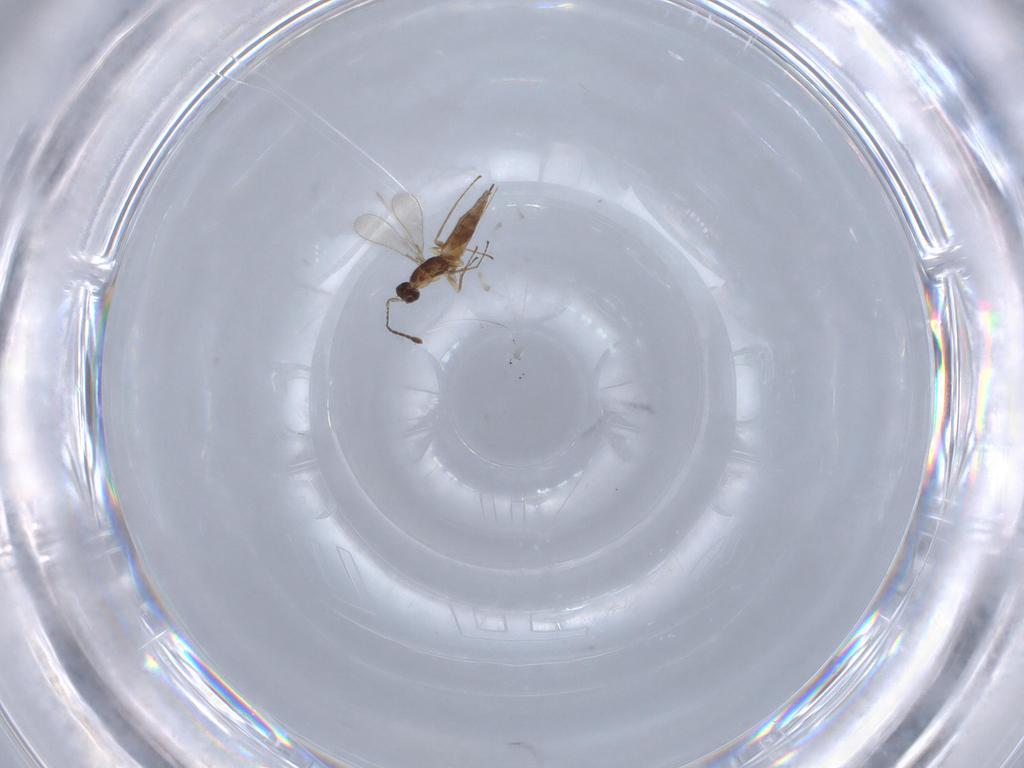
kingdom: Animalia
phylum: Arthropoda
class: Insecta
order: Hymenoptera
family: Mymaridae
